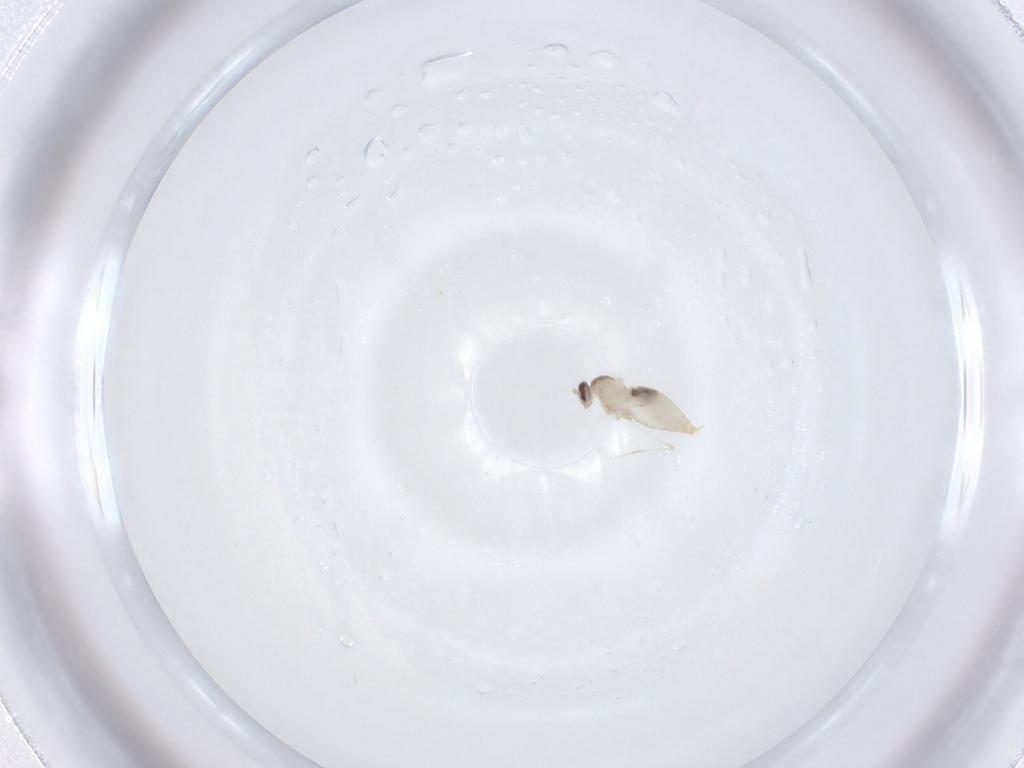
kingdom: Animalia
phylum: Arthropoda
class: Insecta
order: Diptera
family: Cecidomyiidae
